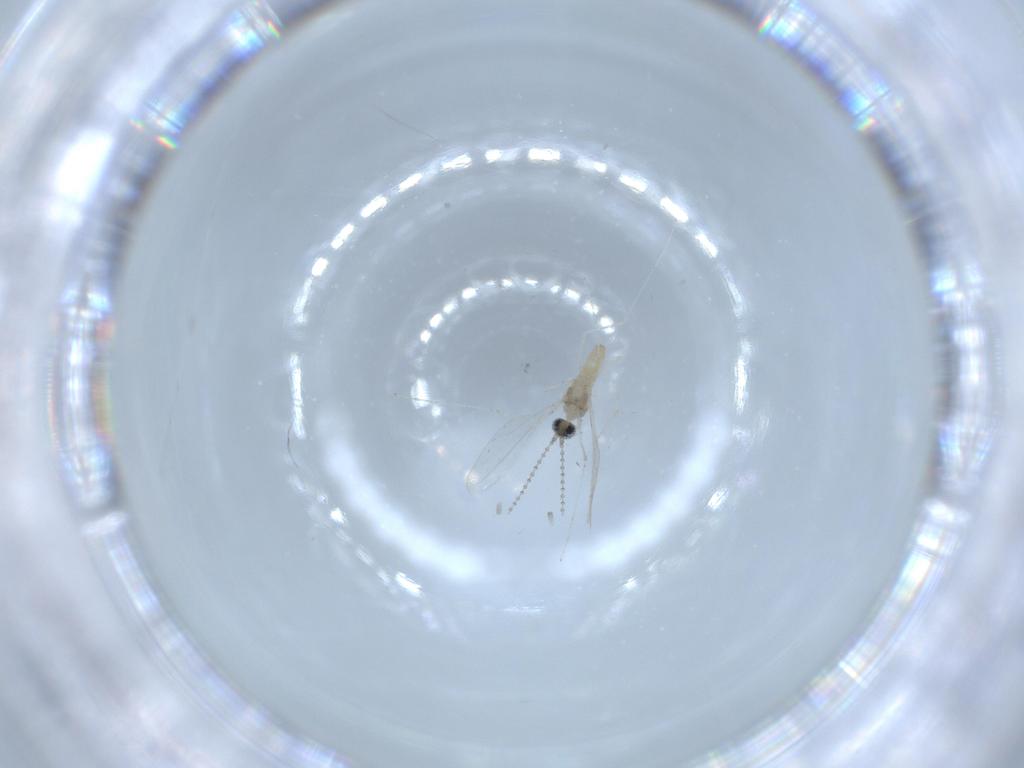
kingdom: Animalia
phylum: Arthropoda
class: Insecta
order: Diptera
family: Cecidomyiidae
